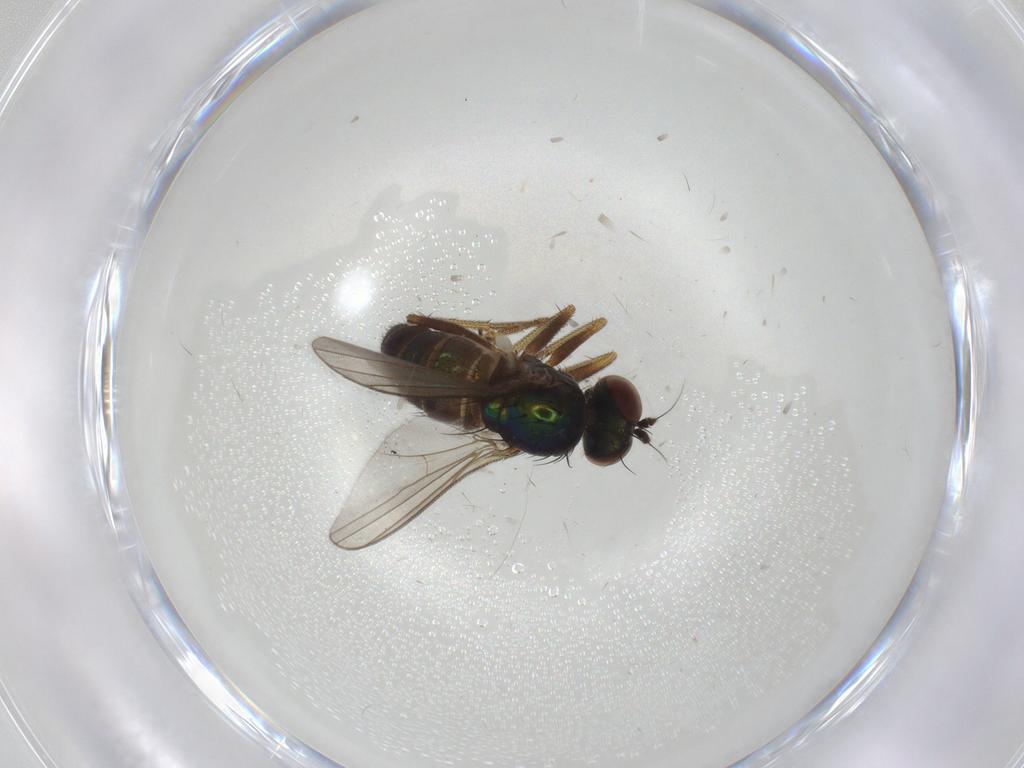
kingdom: Animalia
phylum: Arthropoda
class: Insecta
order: Diptera
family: Dolichopodidae
